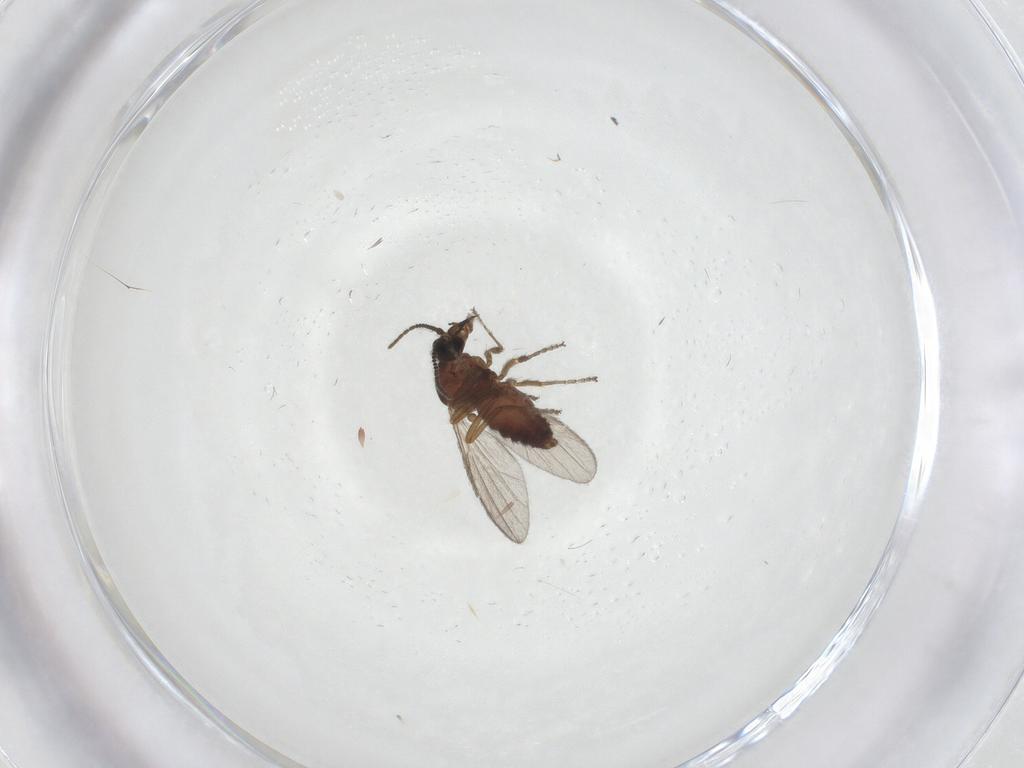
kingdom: Animalia
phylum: Arthropoda
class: Insecta
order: Diptera
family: Ceratopogonidae
